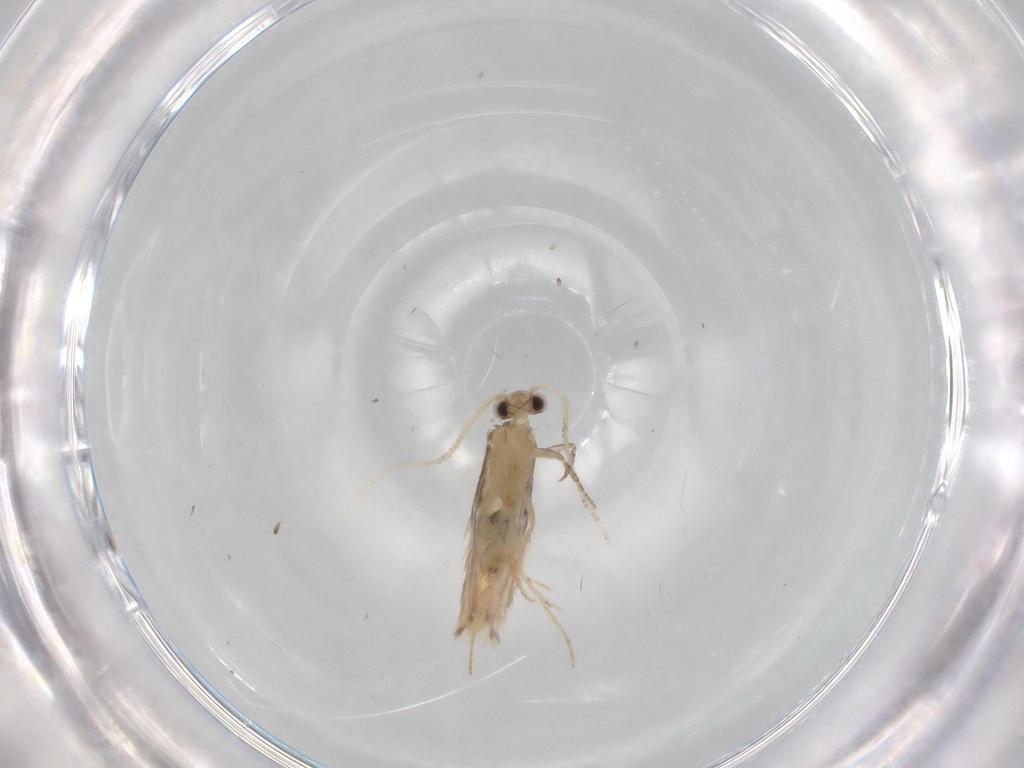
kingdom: Animalia
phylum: Arthropoda
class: Insecta
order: Trichoptera
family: Hydroptilidae
